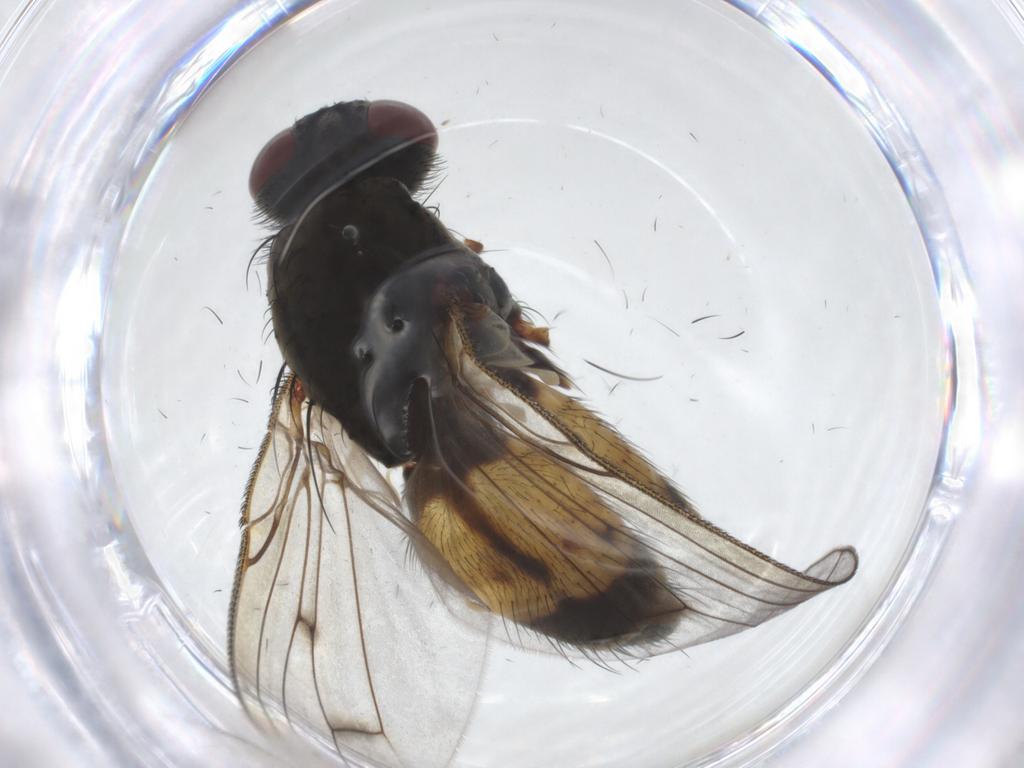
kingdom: Animalia
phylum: Arthropoda
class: Insecta
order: Diptera
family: Muscidae
